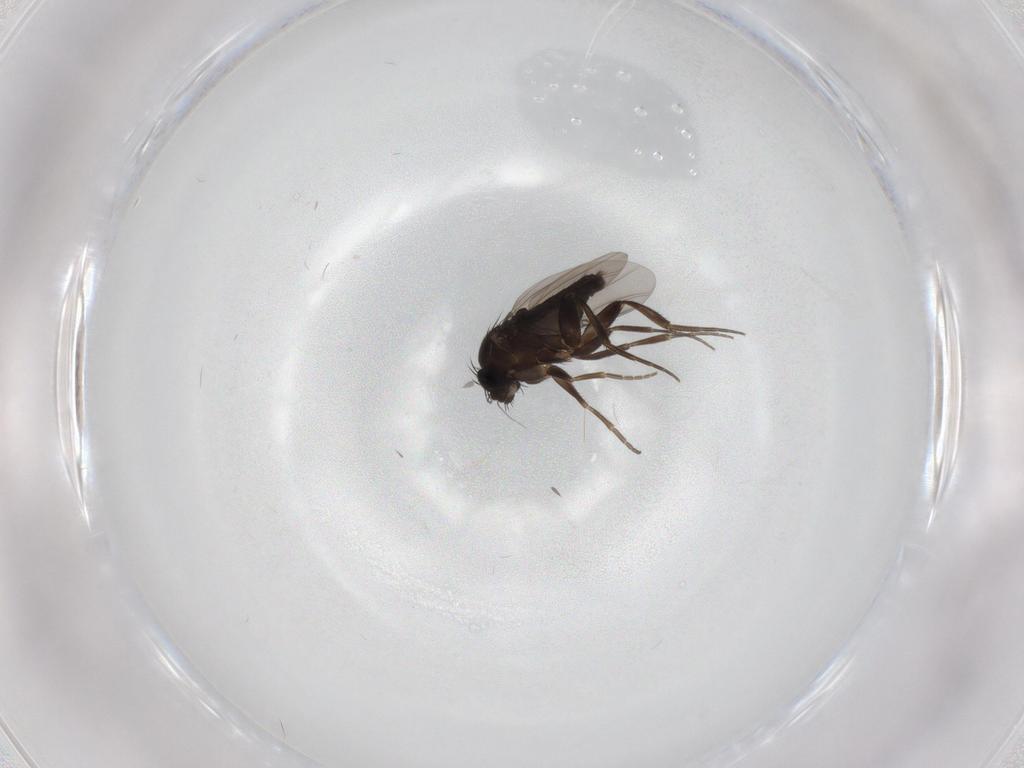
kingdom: Animalia
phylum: Arthropoda
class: Insecta
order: Diptera
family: Phoridae
